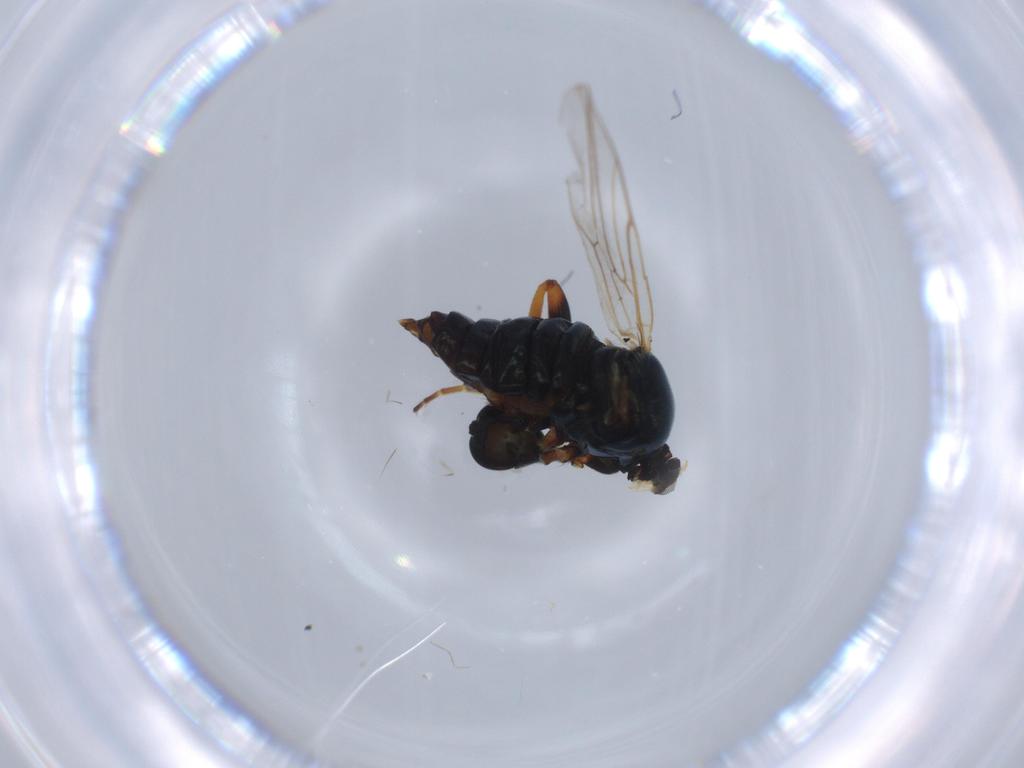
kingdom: Animalia
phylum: Arthropoda
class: Insecta
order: Diptera
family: Hybotidae
